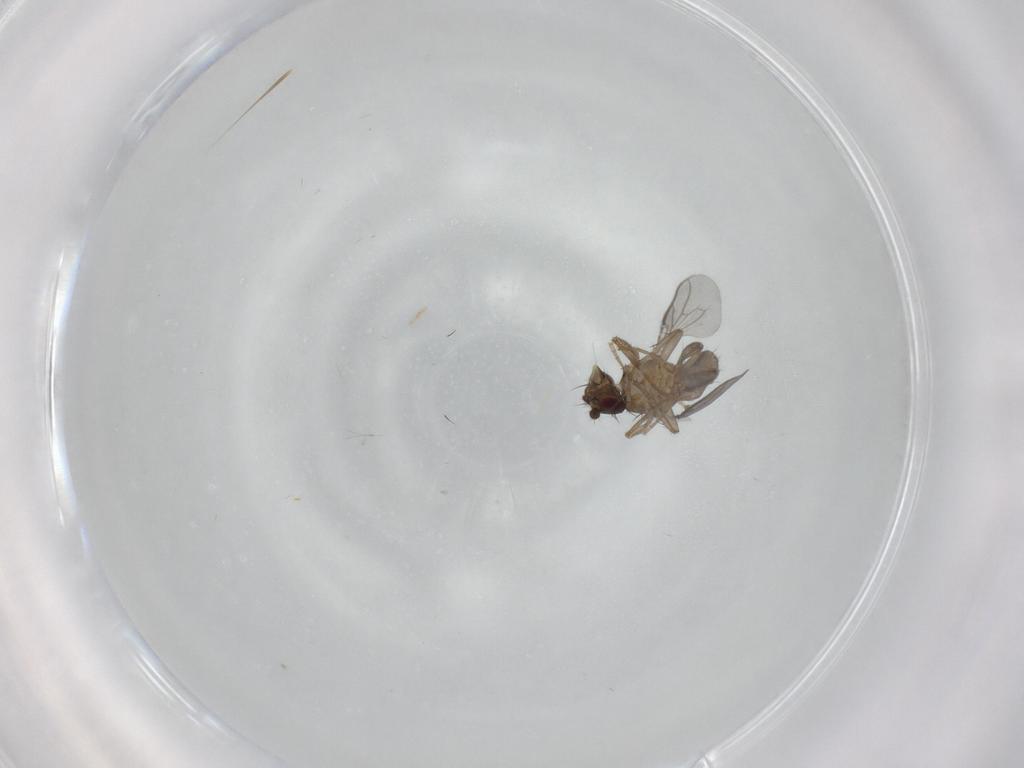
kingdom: Animalia
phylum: Arthropoda
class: Insecta
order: Diptera
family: Sphaeroceridae
